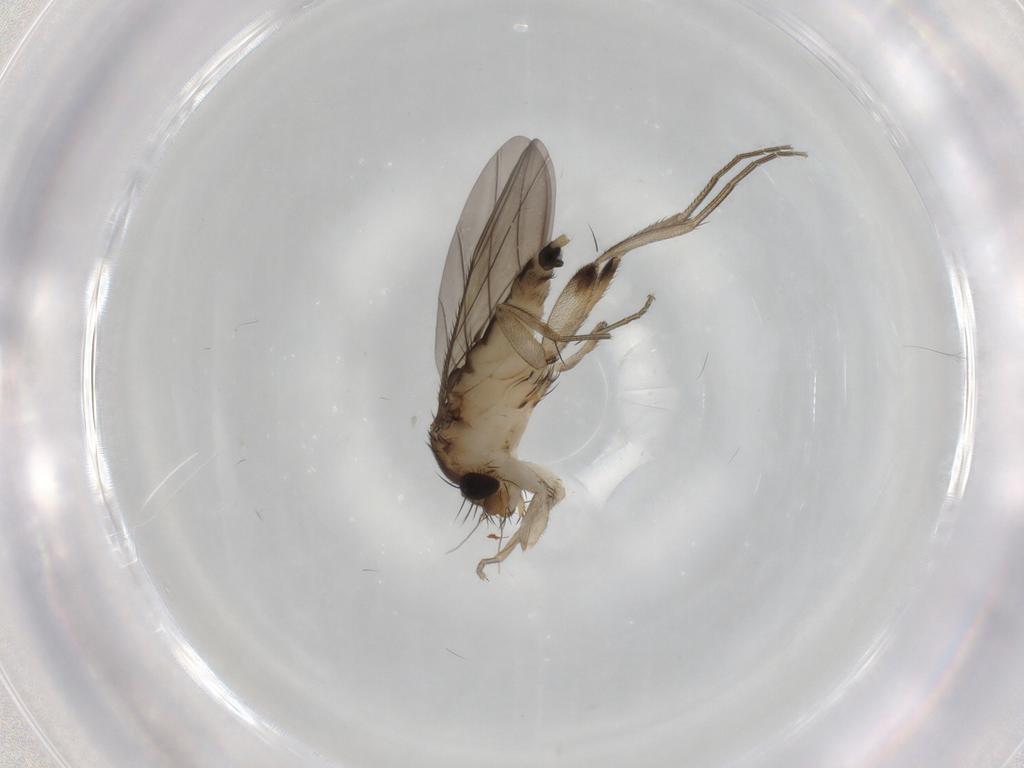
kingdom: Animalia
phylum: Arthropoda
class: Insecta
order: Diptera
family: Phoridae
